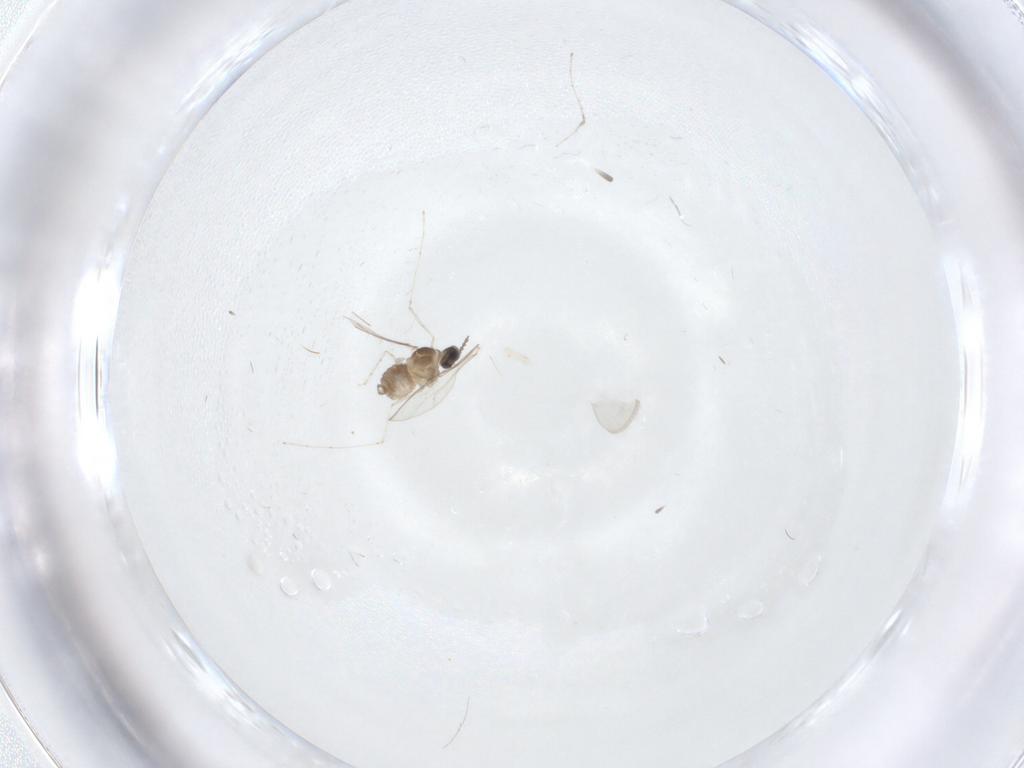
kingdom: Animalia
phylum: Arthropoda
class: Insecta
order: Diptera
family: Cecidomyiidae
